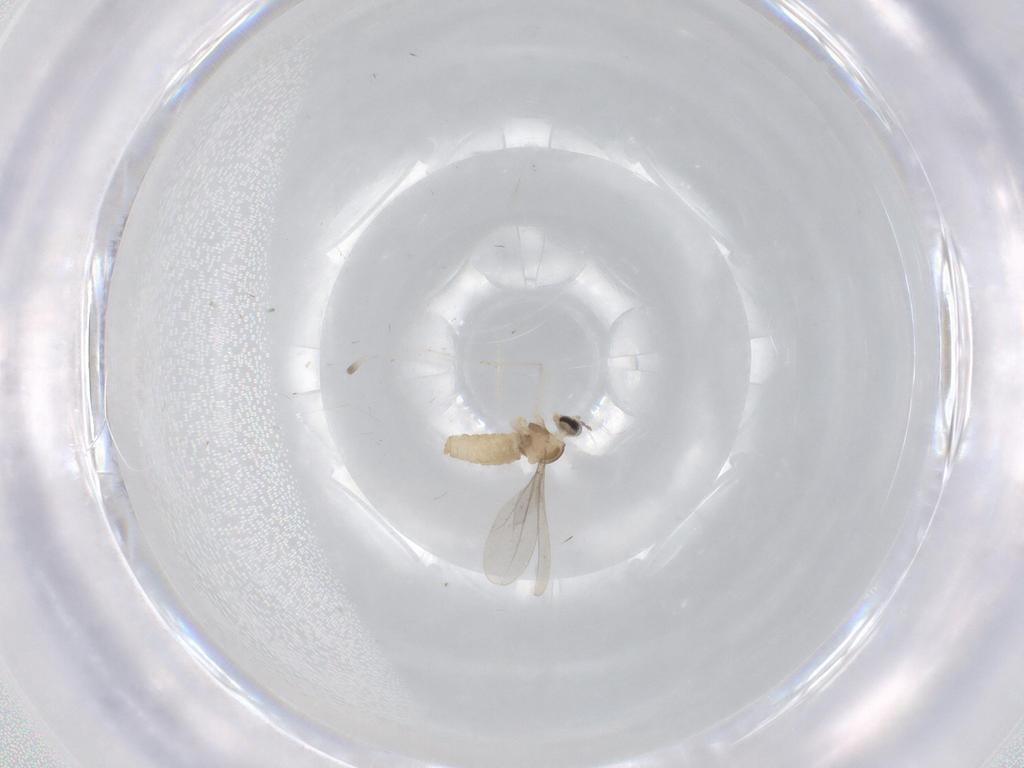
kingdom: Animalia
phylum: Arthropoda
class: Insecta
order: Diptera
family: Cecidomyiidae
